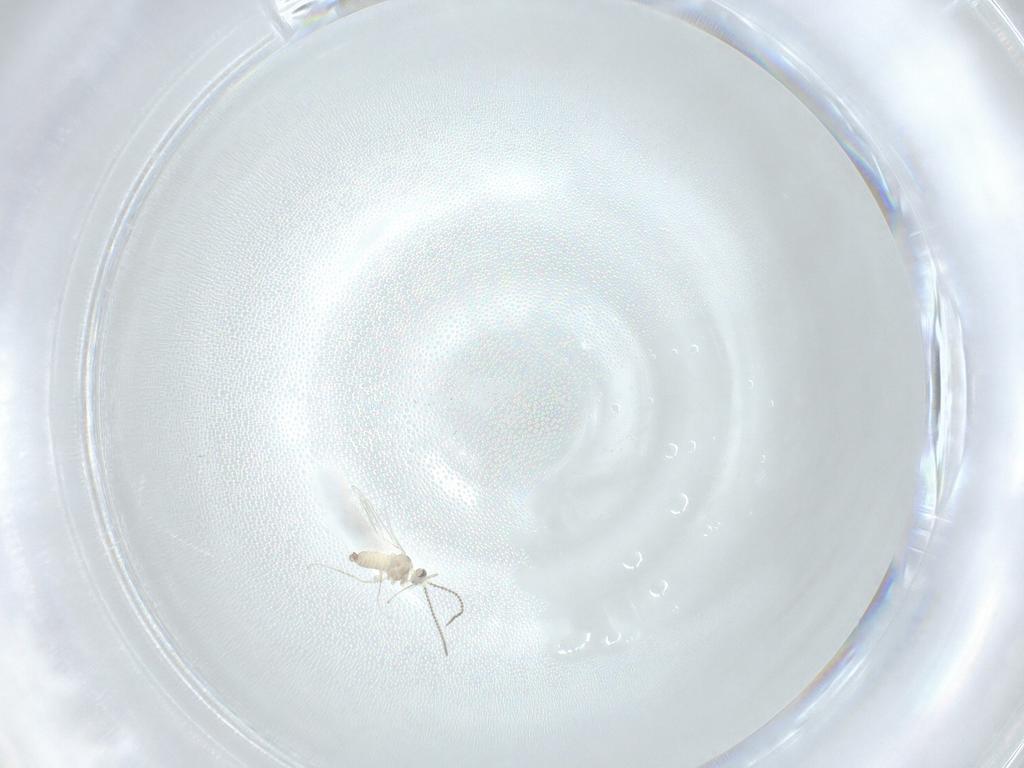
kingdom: Animalia
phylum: Arthropoda
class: Insecta
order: Diptera
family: Cecidomyiidae
